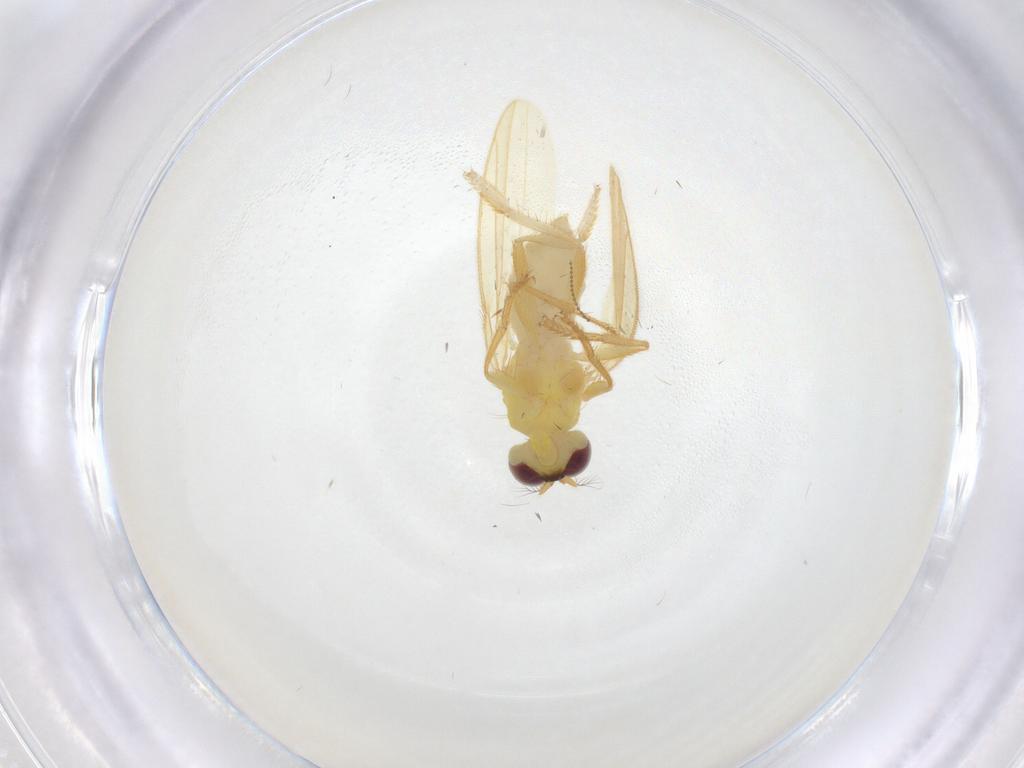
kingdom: Animalia
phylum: Arthropoda
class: Insecta
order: Diptera
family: Periscelididae
